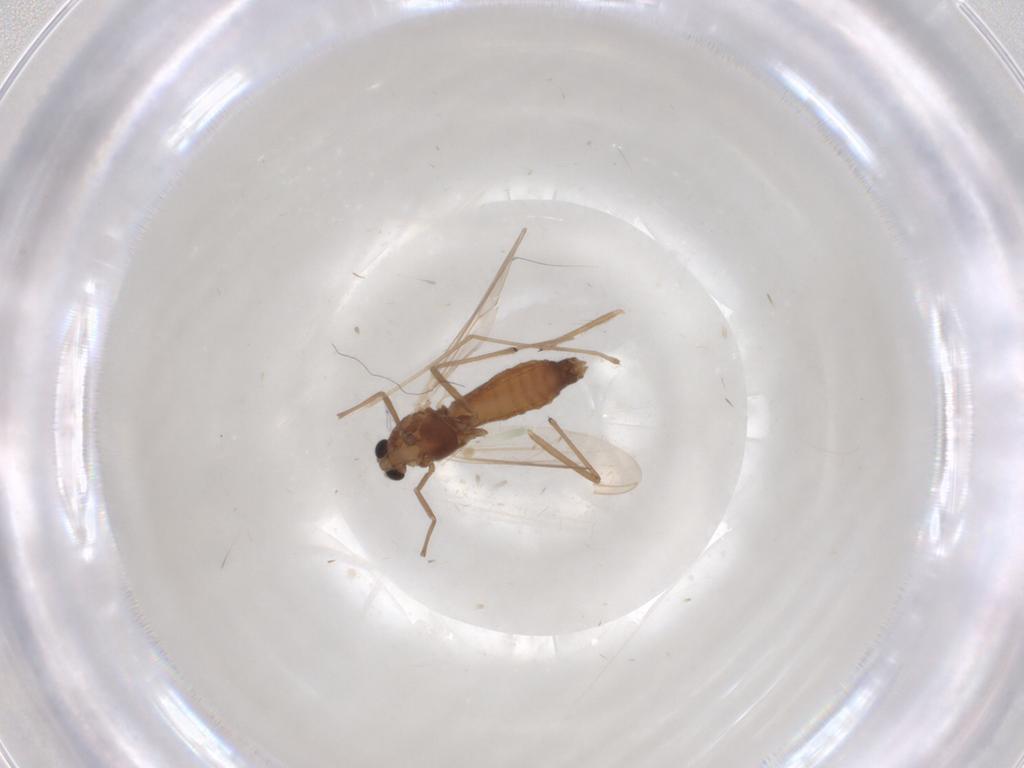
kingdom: Animalia
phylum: Arthropoda
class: Insecta
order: Diptera
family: Chironomidae
